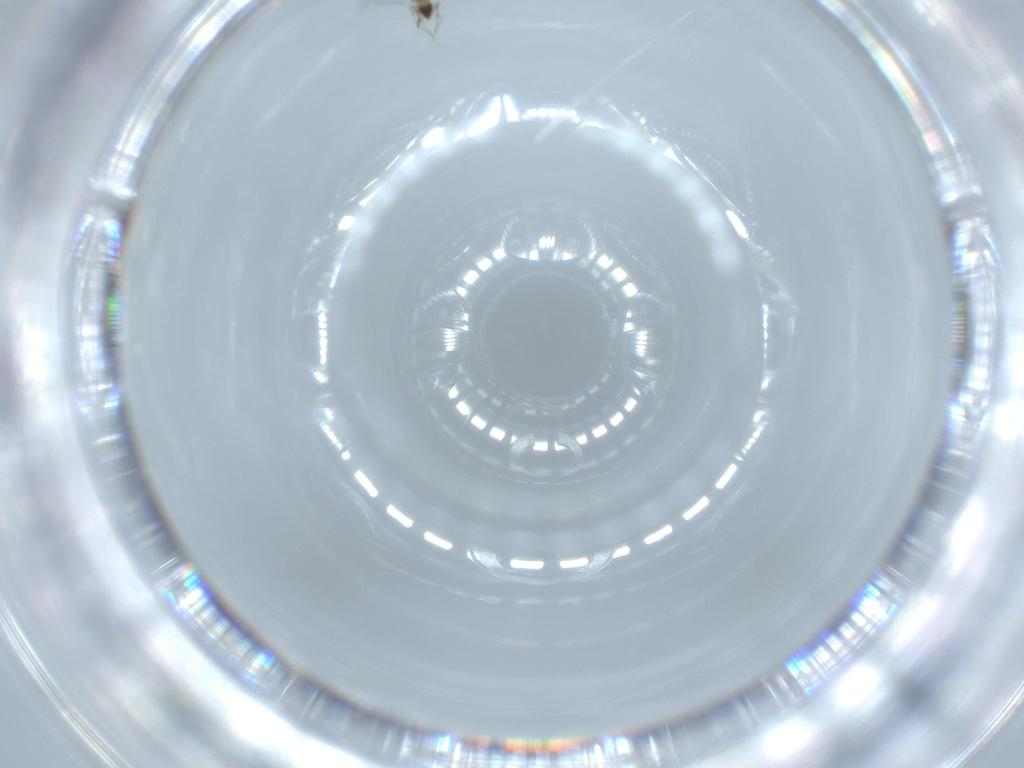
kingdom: Animalia
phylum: Arthropoda
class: Insecta
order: Hymenoptera
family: Mymaridae
